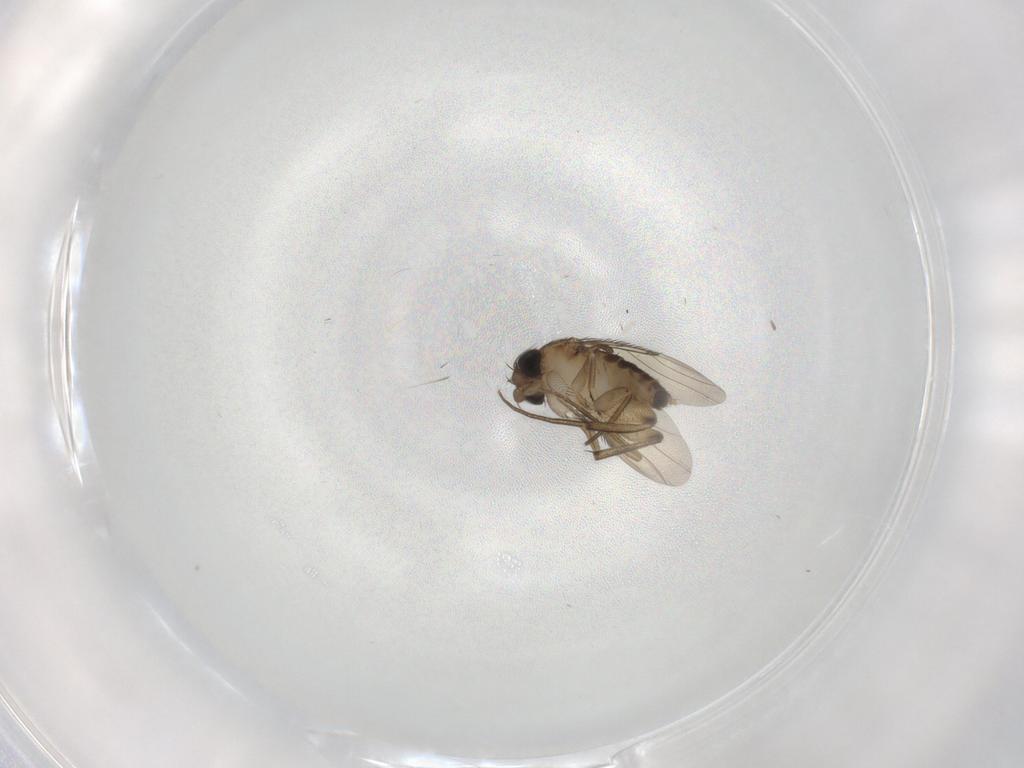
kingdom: Animalia
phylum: Arthropoda
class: Insecta
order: Diptera
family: Phoridae
